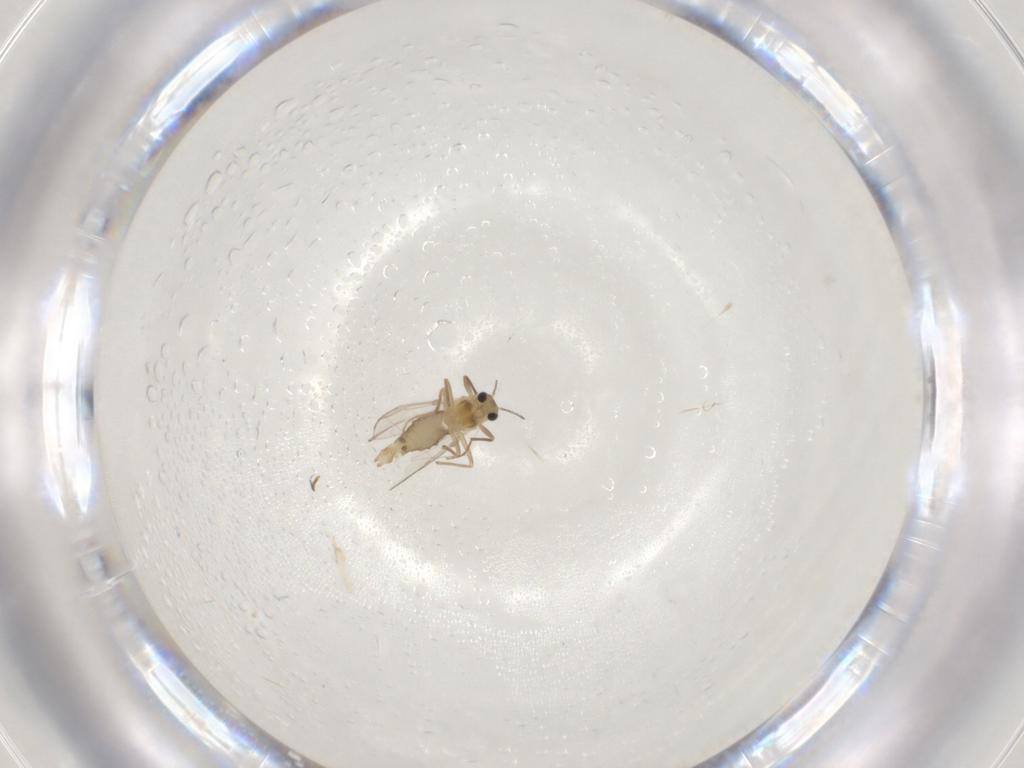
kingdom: Animalia
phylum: Arthropoda
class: Insecta
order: Diptera
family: Chironomidae
